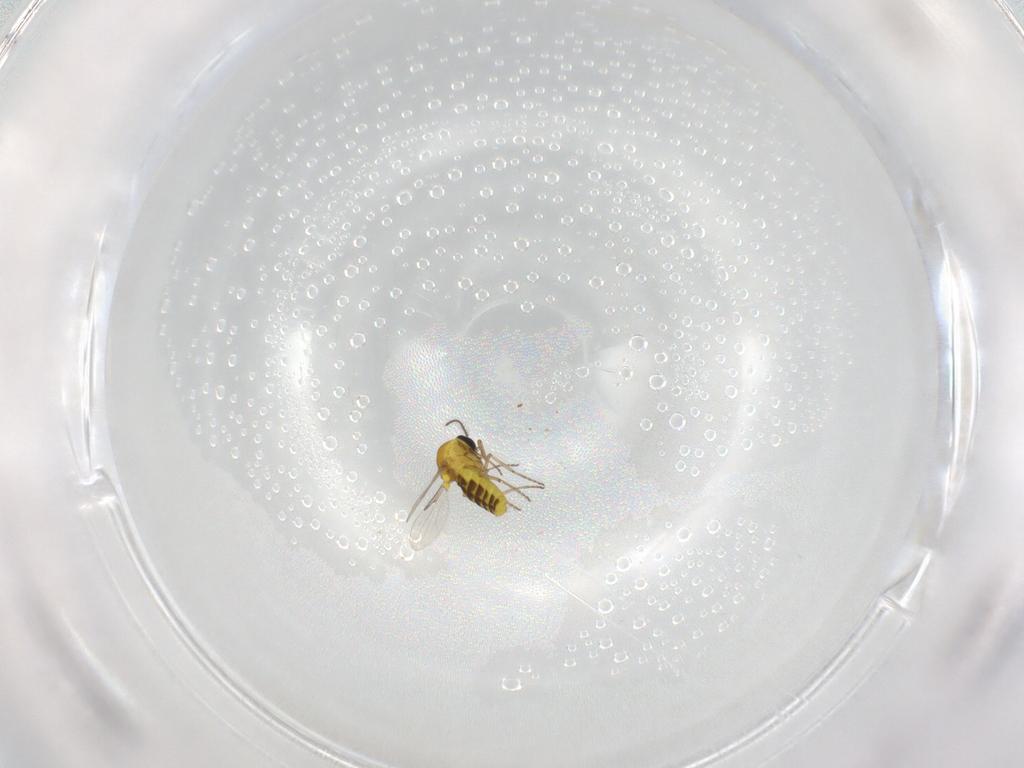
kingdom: Animalia
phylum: Arthropoda
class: Insecta
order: Diptera
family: Ceratopogonidae
